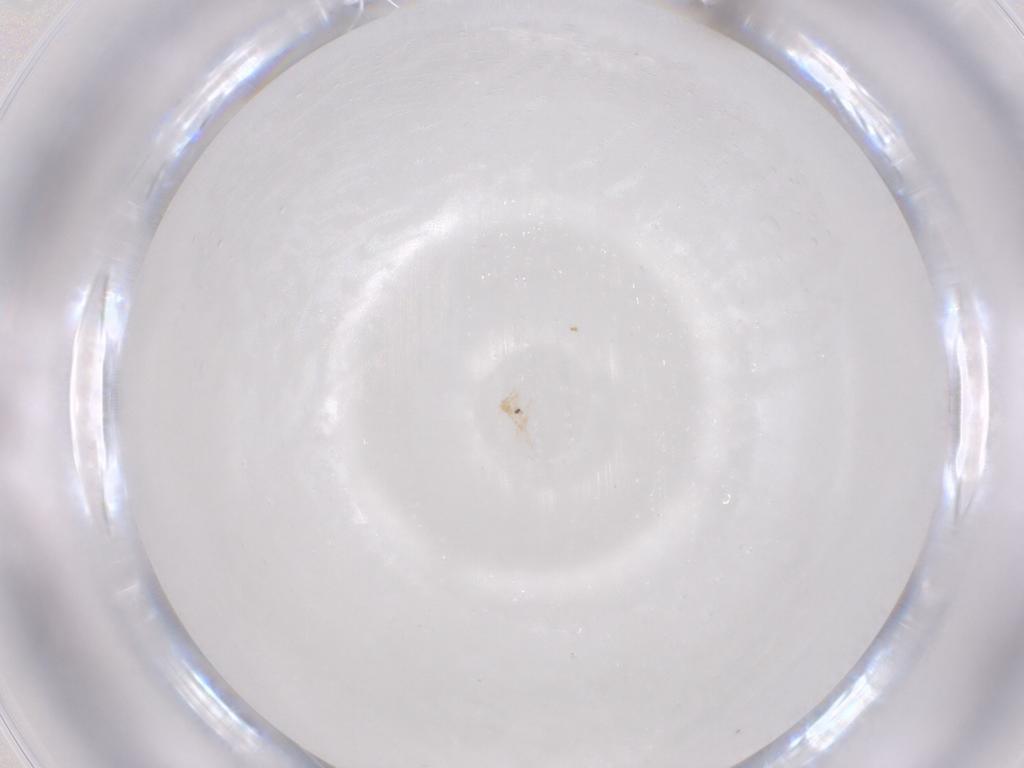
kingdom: Animalia
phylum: Arthropoda
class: Insecta
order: Diptera
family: Psychodidae
